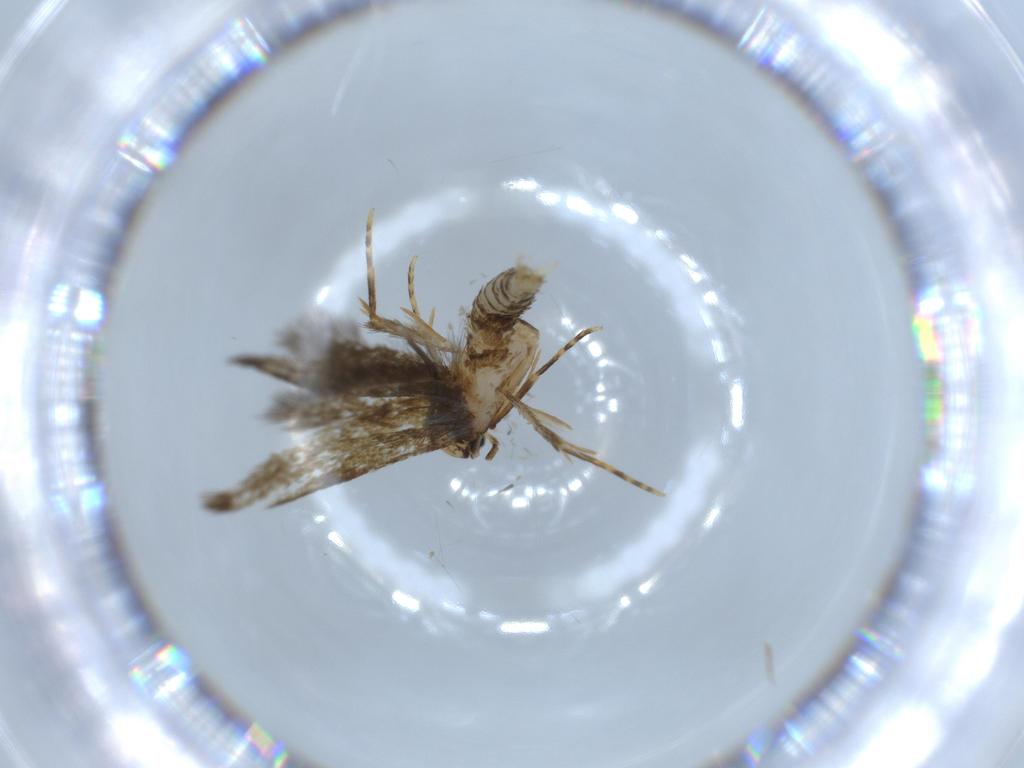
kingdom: Animalia
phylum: Arthropoda
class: Insecta
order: Lepidoptera
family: Tineidae
